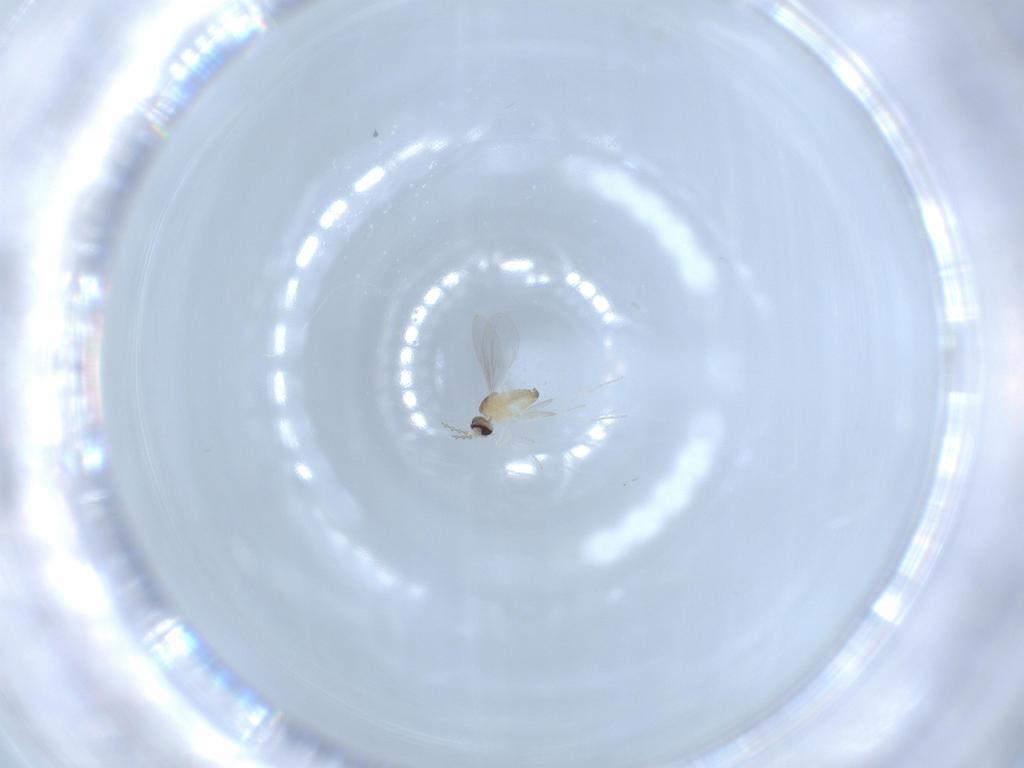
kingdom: Animalia
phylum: Arthropoda
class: Insecta
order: Diptera
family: Cecidomyiidae
